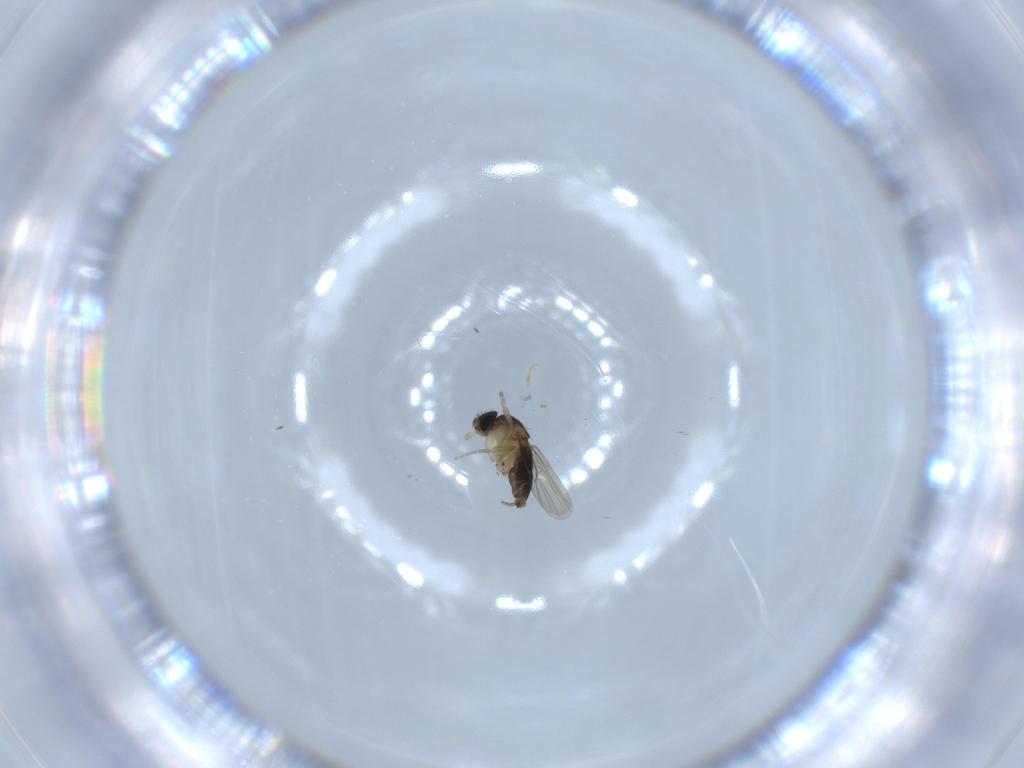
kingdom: Animalia
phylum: Arthropoda
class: Insecta
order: Diptera
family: Phoridae
